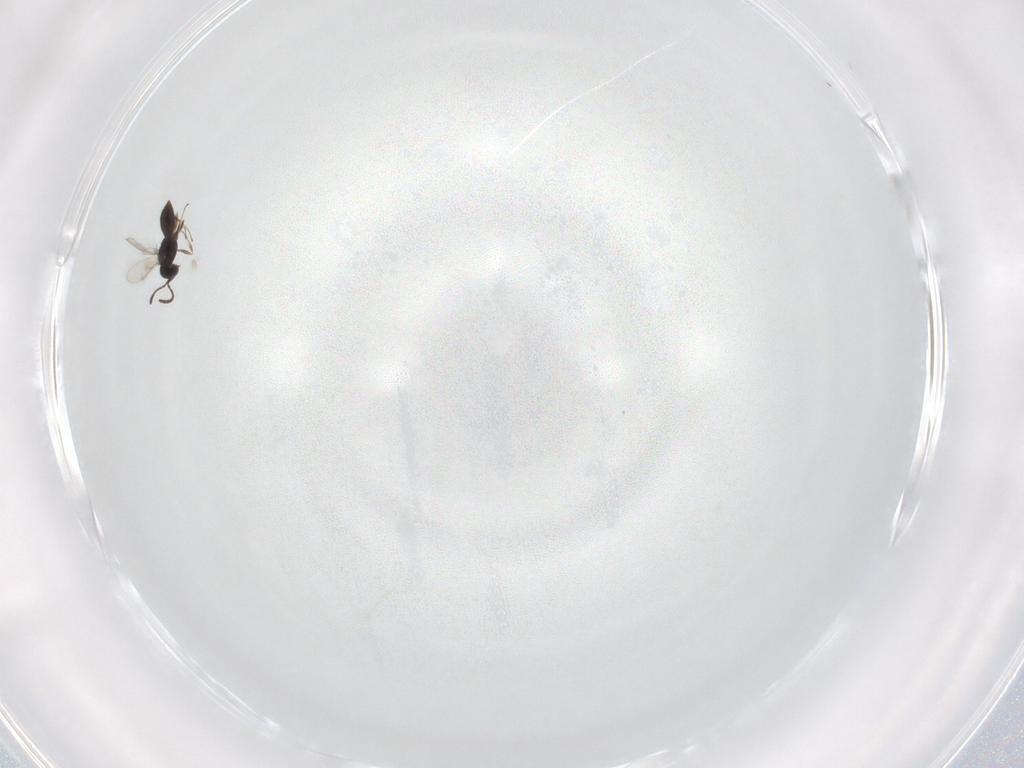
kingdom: Animalia
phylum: Arthropoda
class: Insecta
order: Hymenoptera
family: Scelionidae
